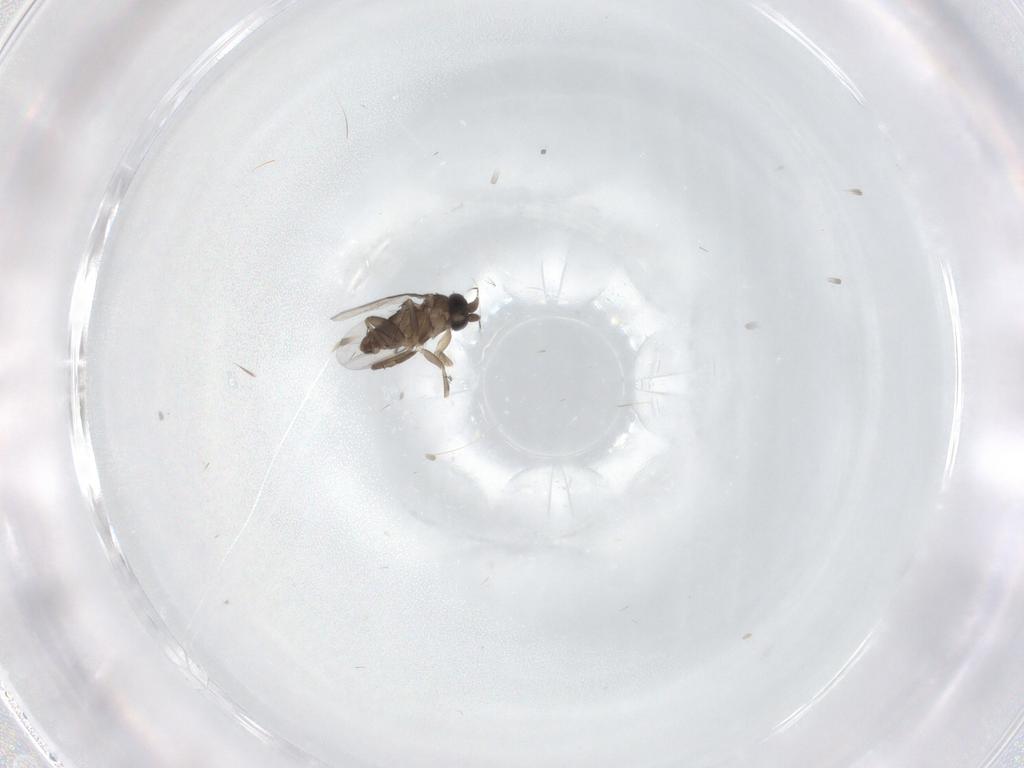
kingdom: Animalia
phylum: Arthropoda
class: Insecta
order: Diptera
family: Phoridae
